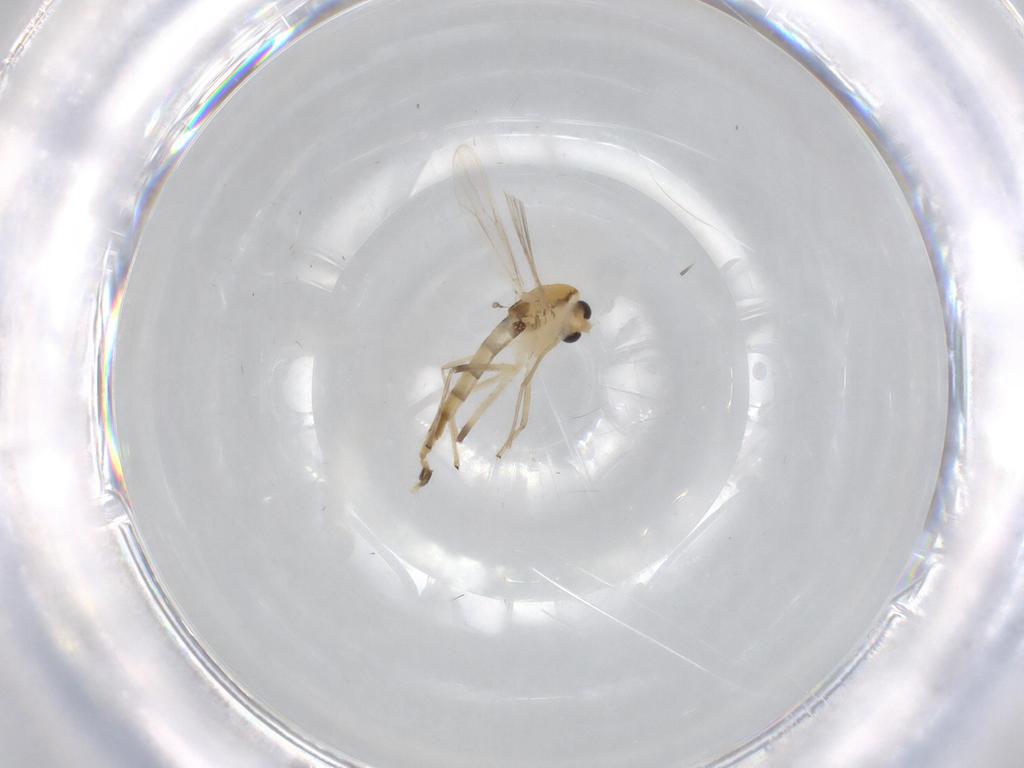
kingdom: Animalia
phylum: Arthropoda
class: Insecta
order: Diptera
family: Chironomidae
